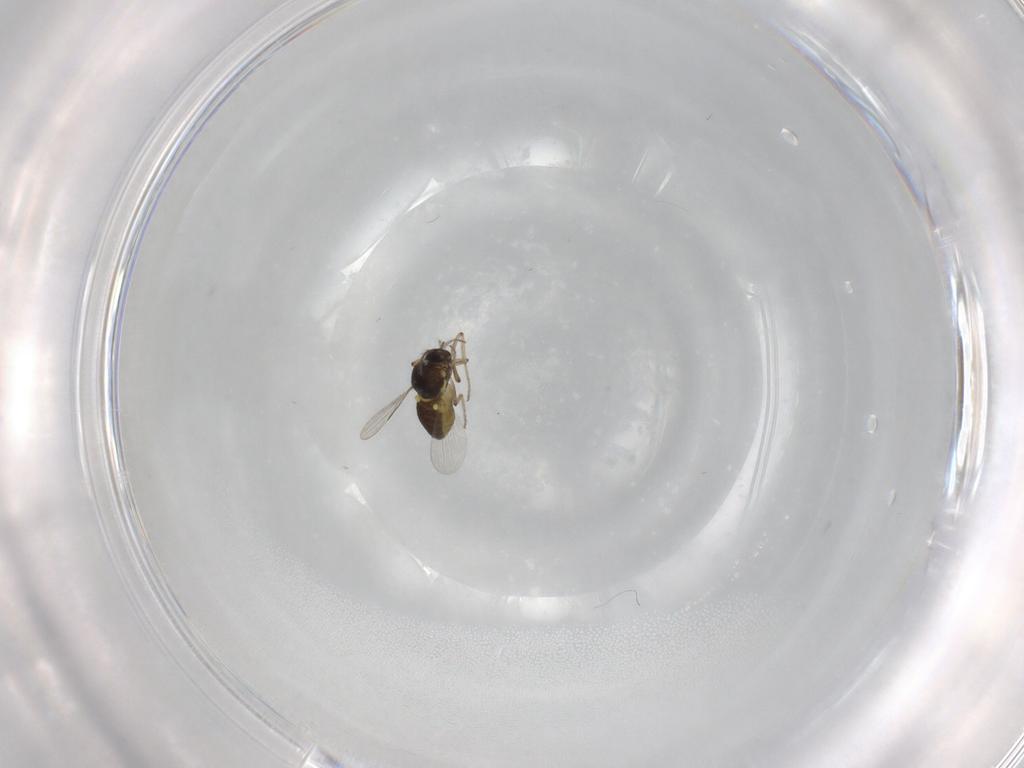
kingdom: Animalia
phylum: Arthropoda
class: Insecta
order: Diptera
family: Ceratopogonidae
